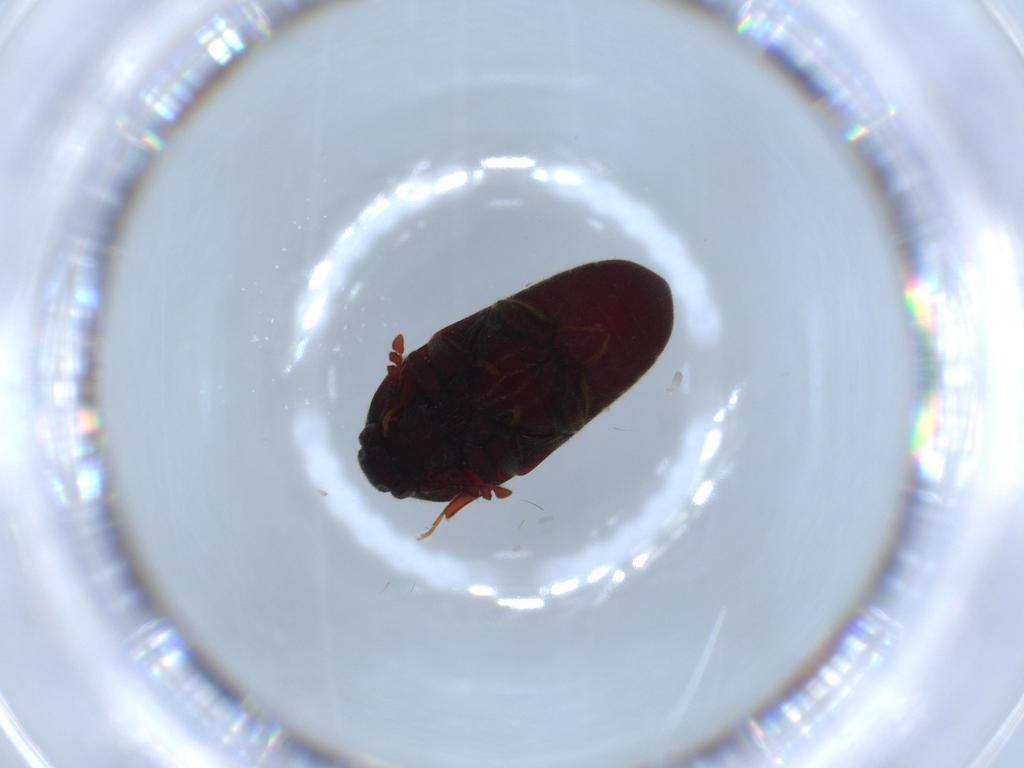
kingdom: Animalia
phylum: Arthropoda
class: Insecta
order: Coleoptera
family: Throscidae
